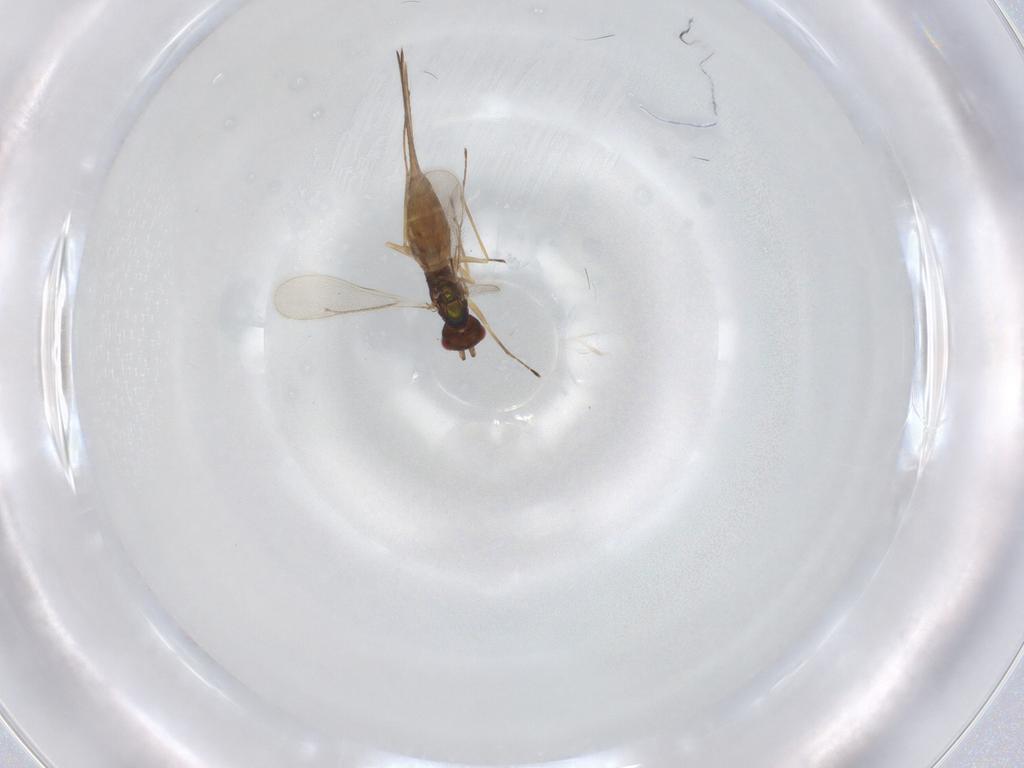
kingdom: Animalia
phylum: Arthropoda
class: Insecta
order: Hymenoptera
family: Eulophidae
